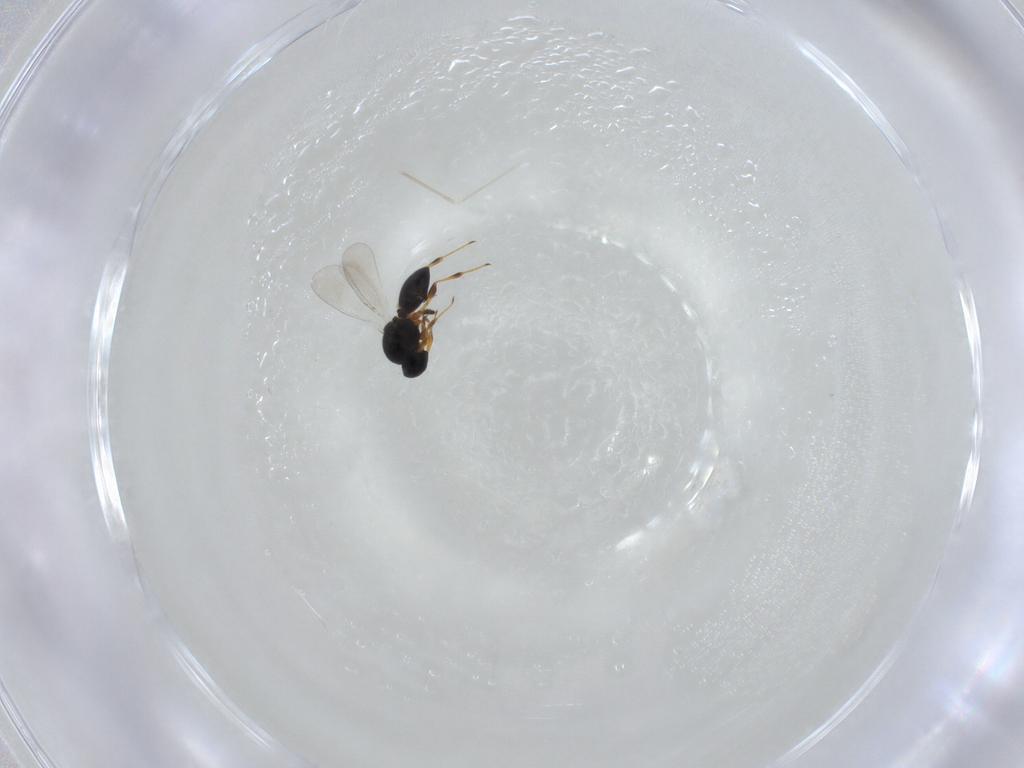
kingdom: Animalia
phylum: Arthropoda
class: Insecta
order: Hymenoptera
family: Platygastridae
